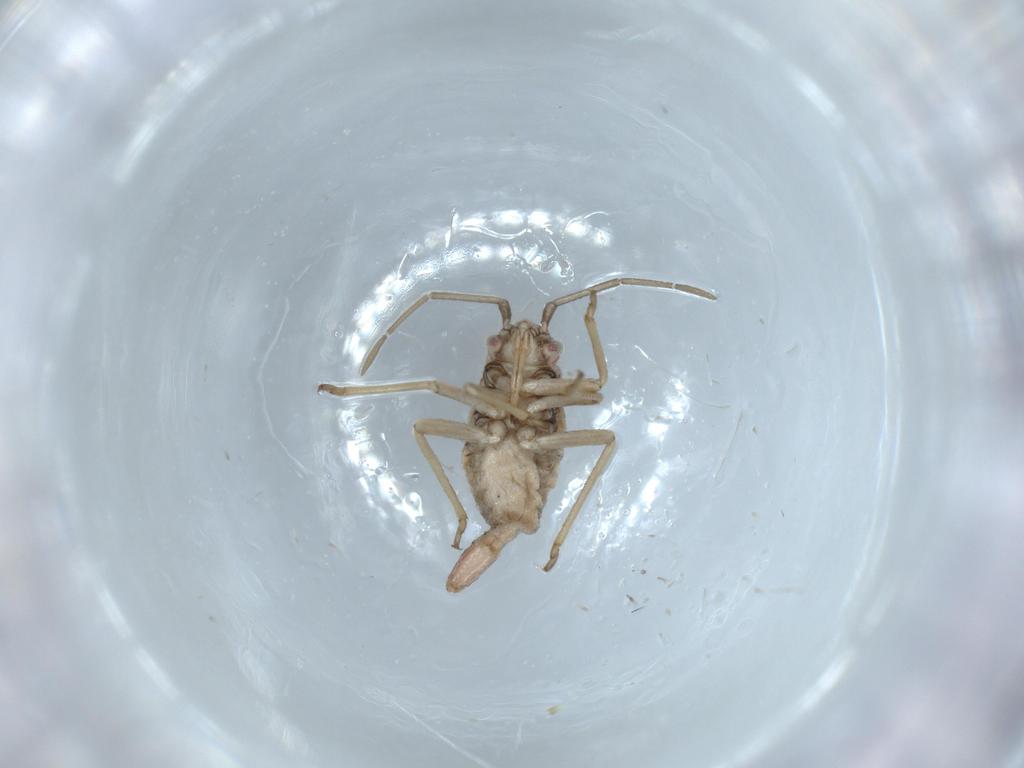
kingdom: Animalia
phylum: Arthropoda
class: Insecta
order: Hemiptera
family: Miridae
